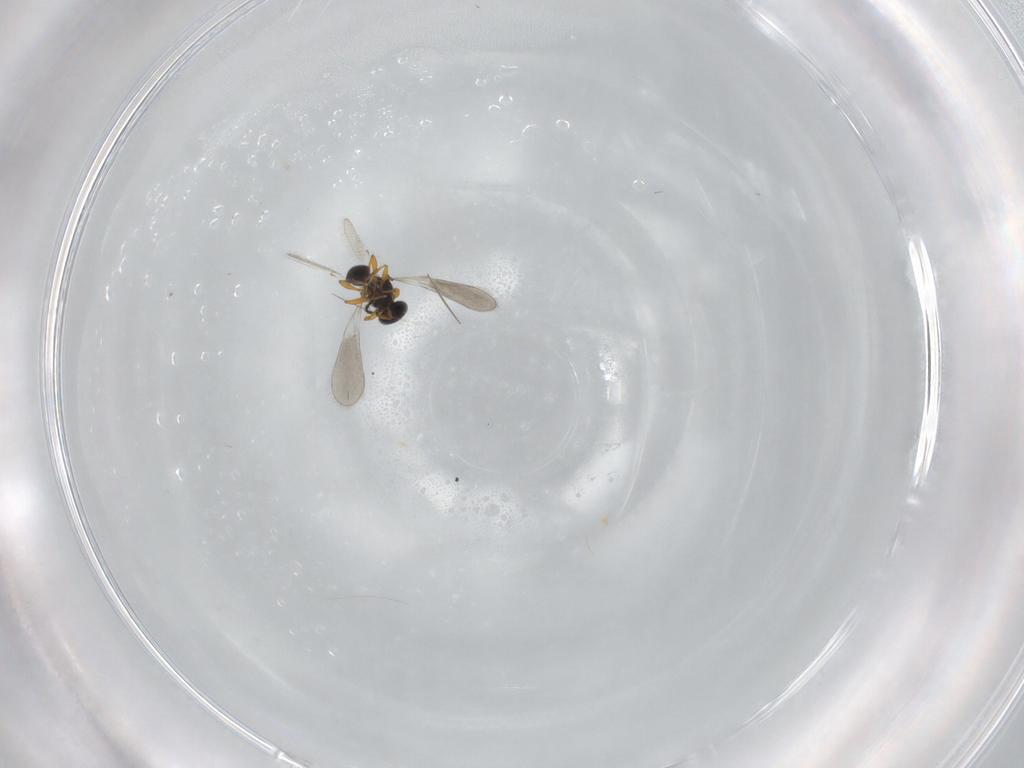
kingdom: Animalia
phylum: Arthropoda
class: Insecta
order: Hymenoptera
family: Platygastridae
